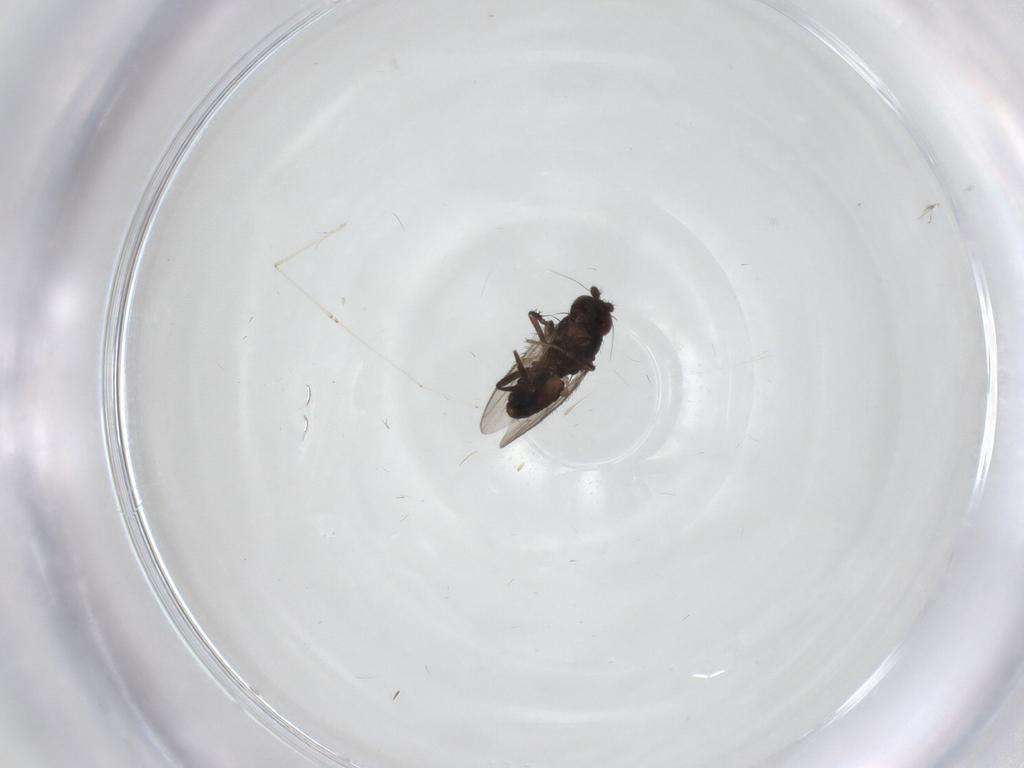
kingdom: Animalia
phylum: Arthropoda
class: Insecta
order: Diptera
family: Sphaeroceridae
